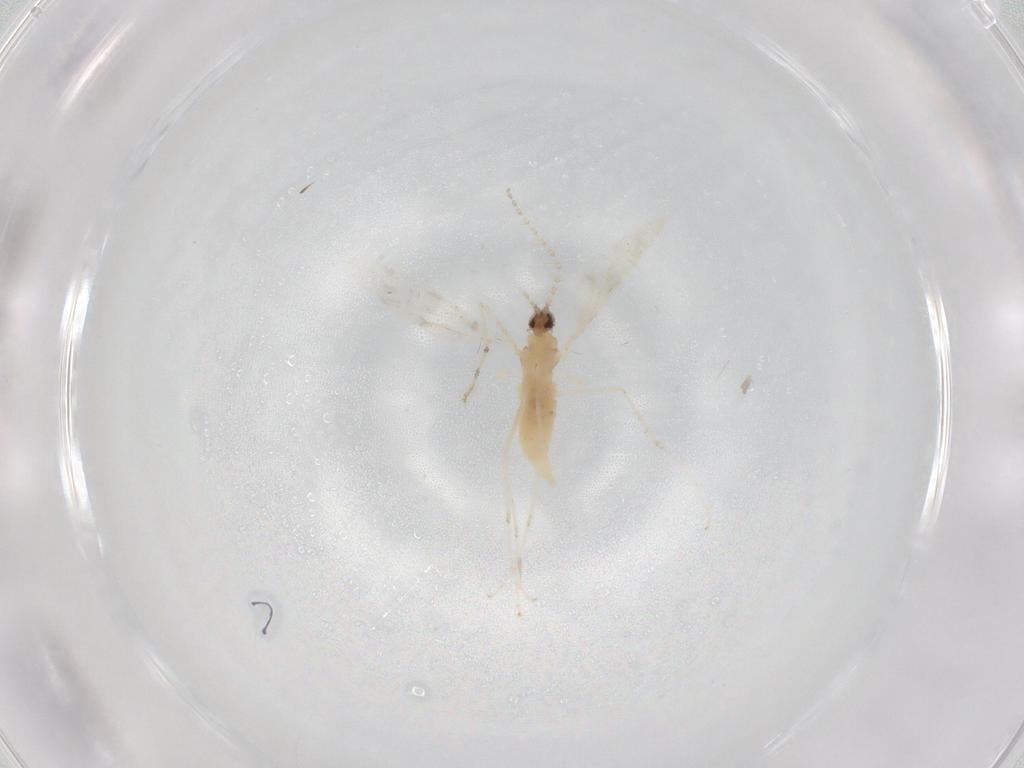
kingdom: Animalia
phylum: Arthropoda
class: Insecta
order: Diptera
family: Cecidomyiidae
